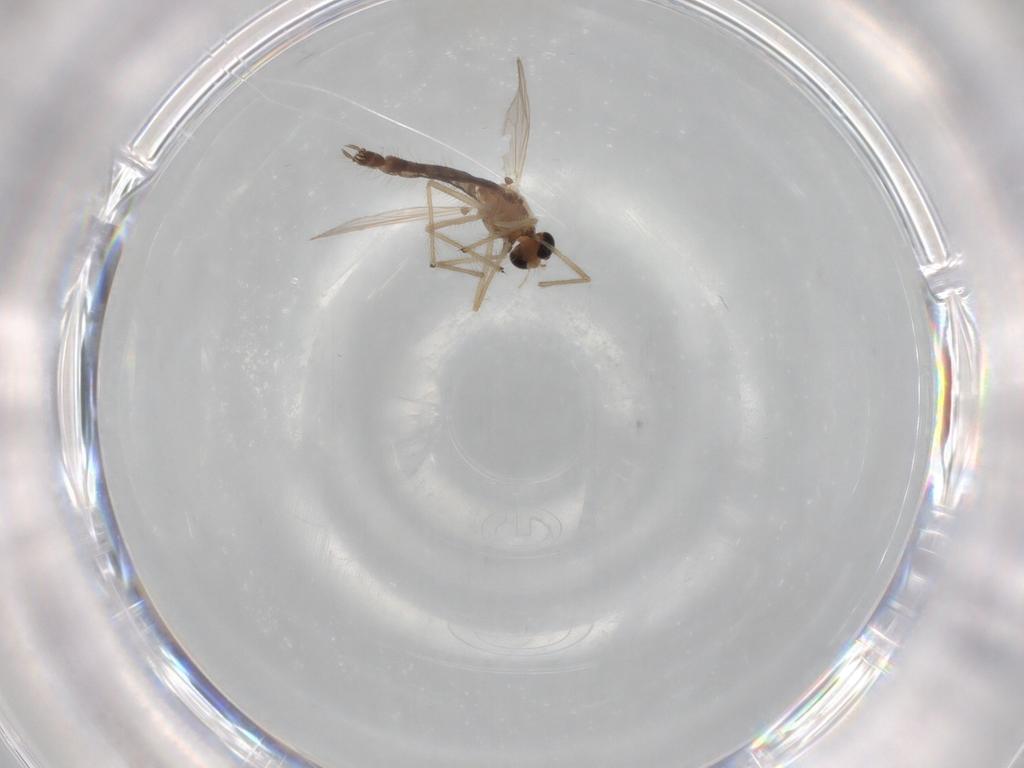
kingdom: Animalia
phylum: Arthropoda
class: Insecta
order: Diptera
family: Chironomidae
